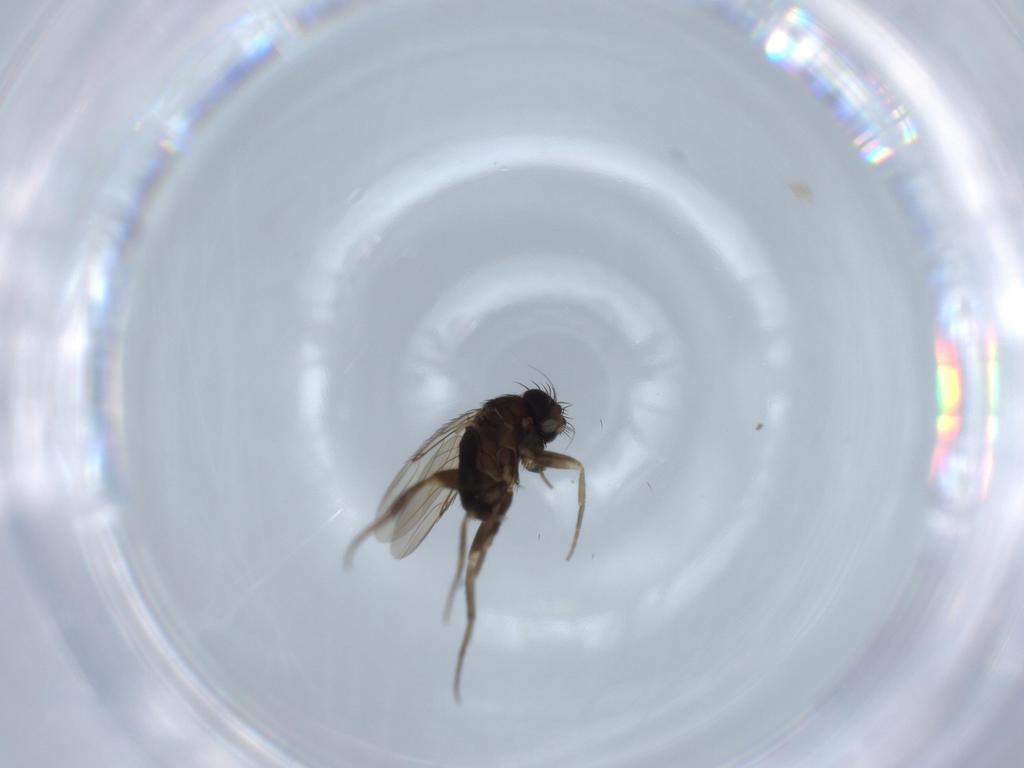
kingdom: Animalia
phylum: Arthropoda
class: Insecta
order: Diptera
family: Phoridae
